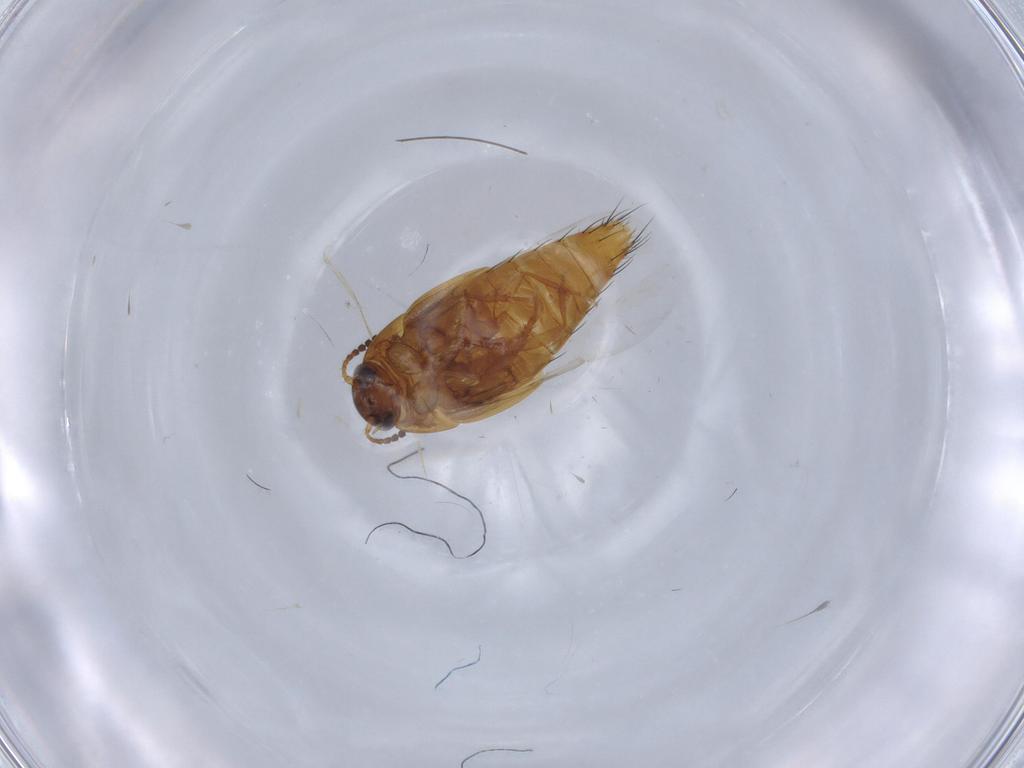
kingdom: Animalia
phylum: Arthropoda
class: Insecta
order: Coleoptera
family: Staphylinidae
